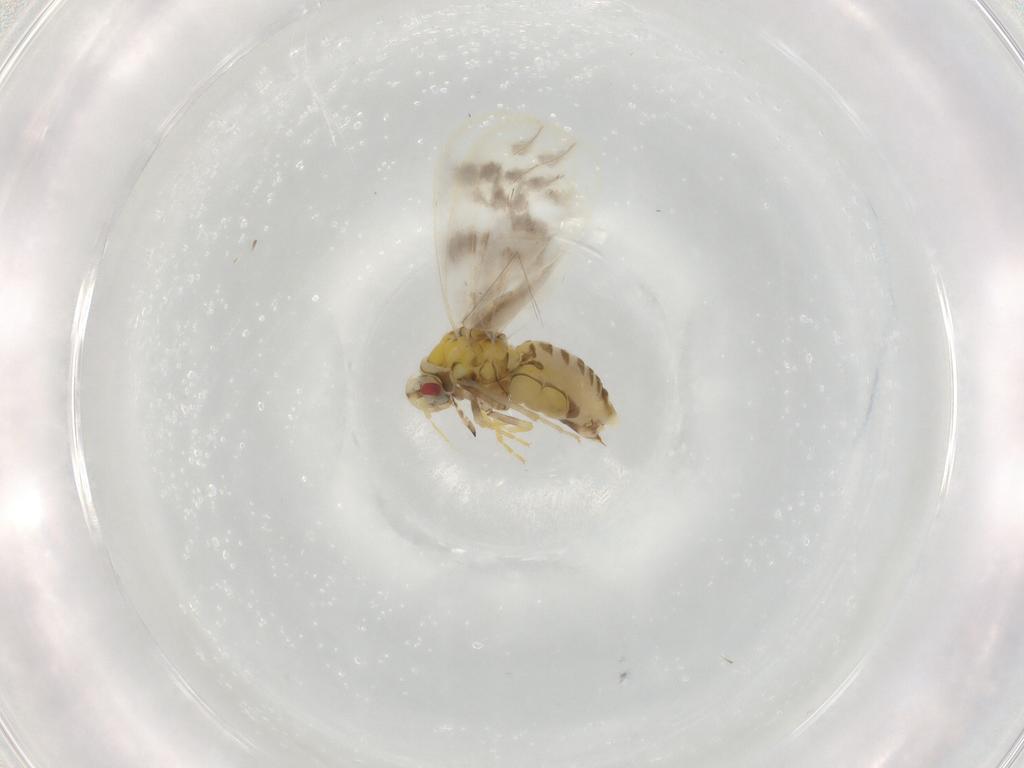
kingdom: Animalia
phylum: Arthropoda
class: Insecta
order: Hemiptera
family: Aleyrodidae
